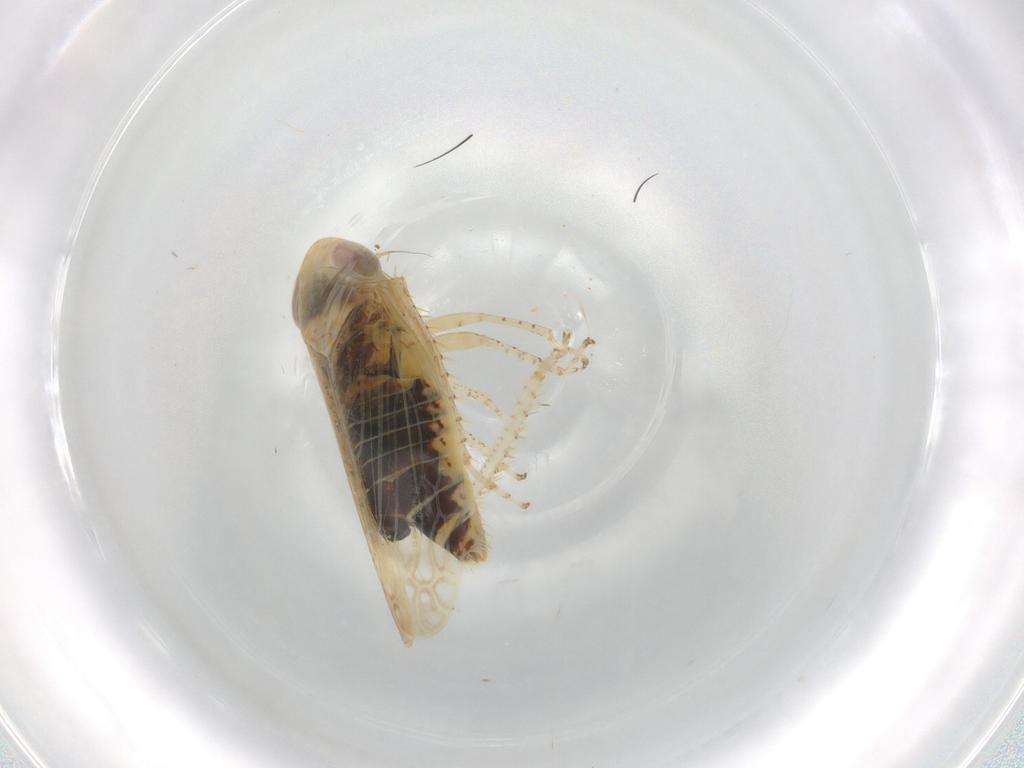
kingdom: Animalia
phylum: Arthropoda
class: Insecta
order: Hemiptera
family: Cicadellidae
